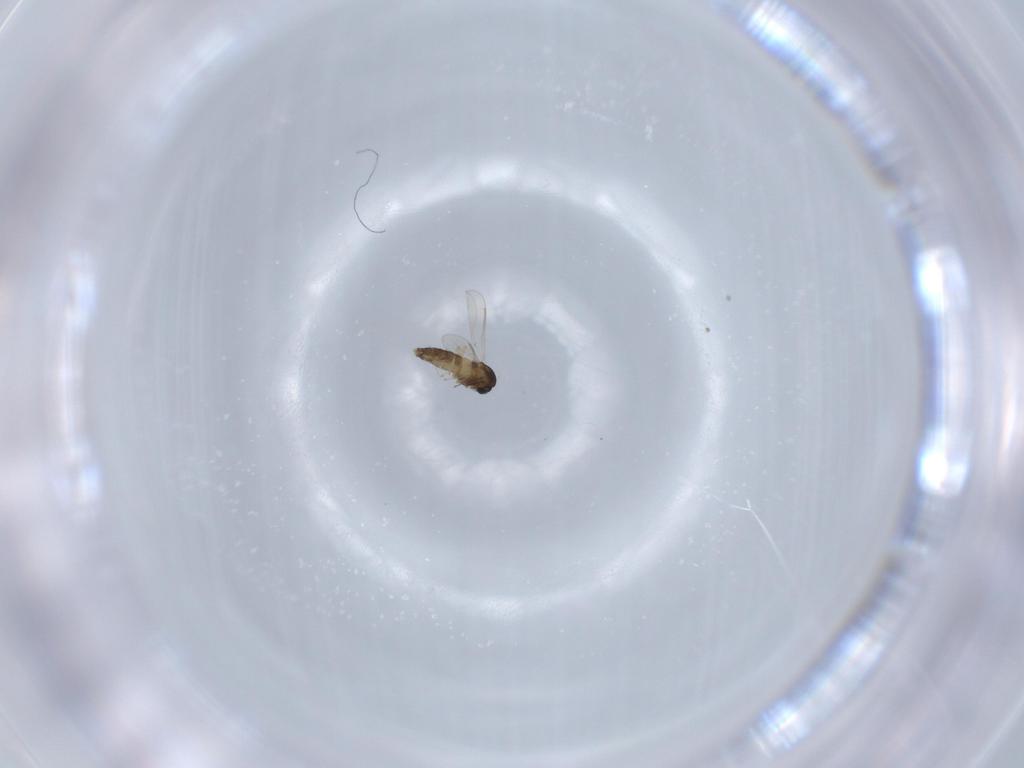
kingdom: Animalia
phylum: Arthropoda
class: Insecta
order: Diptera
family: Chironomidae
